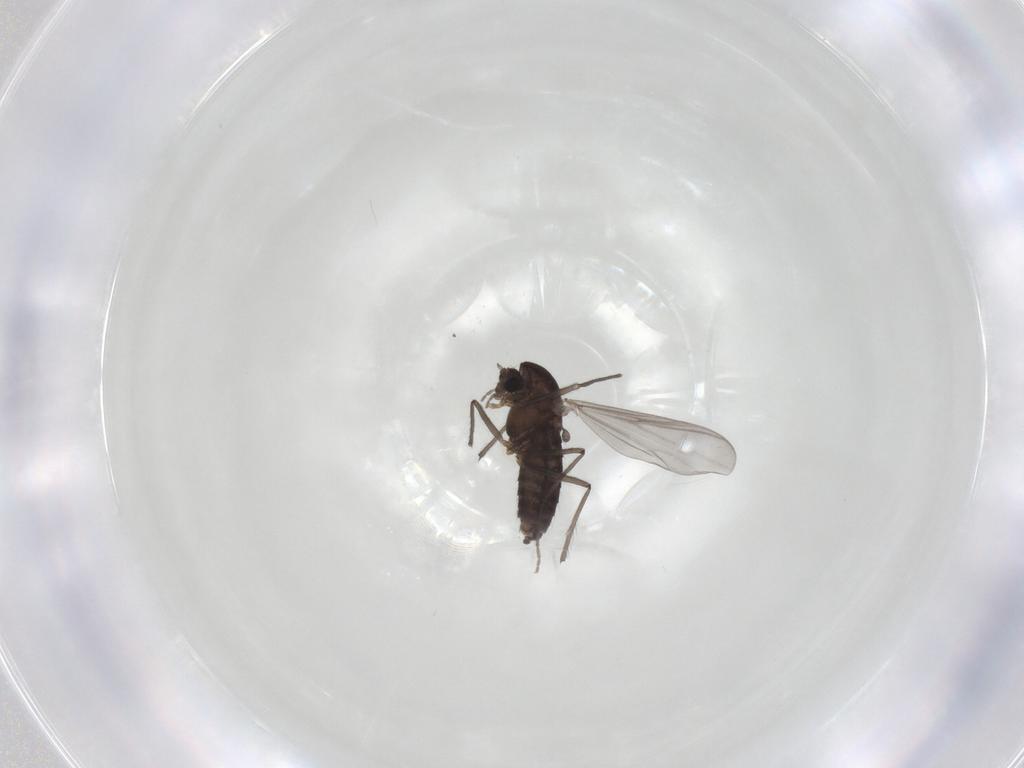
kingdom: Animalia
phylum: Arthropoda
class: Insecta
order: Diptera
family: Chironomidae
